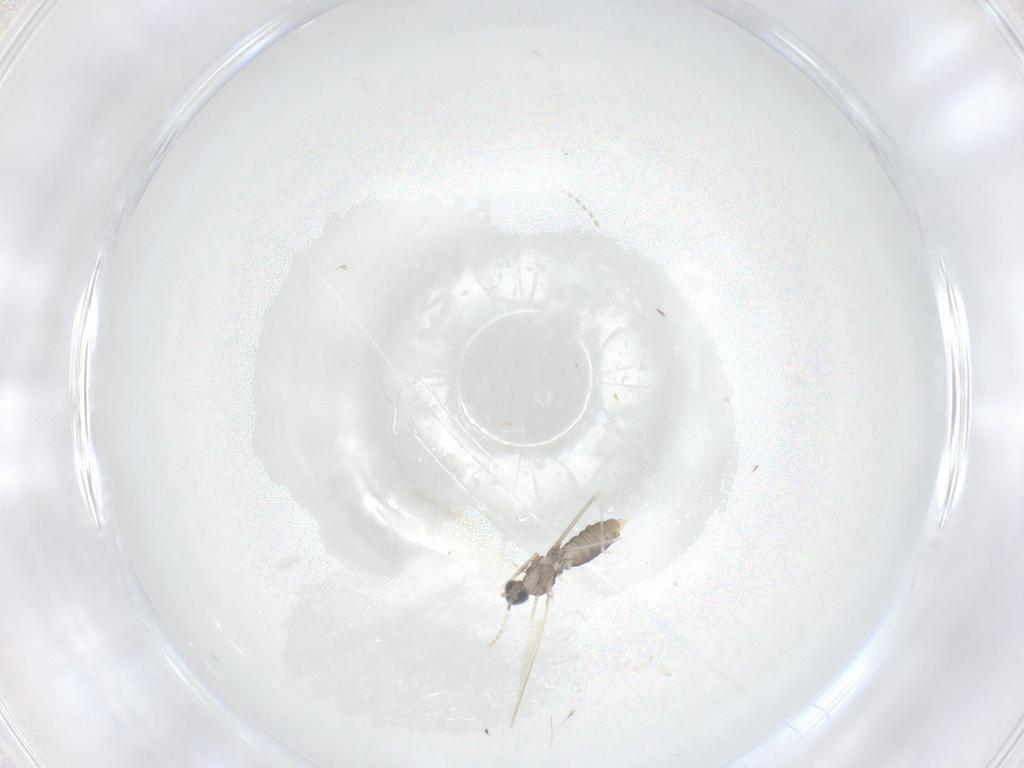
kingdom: Animalia
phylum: Arthropoda
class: Insecta
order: Diptera
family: Cecidomyiidae
